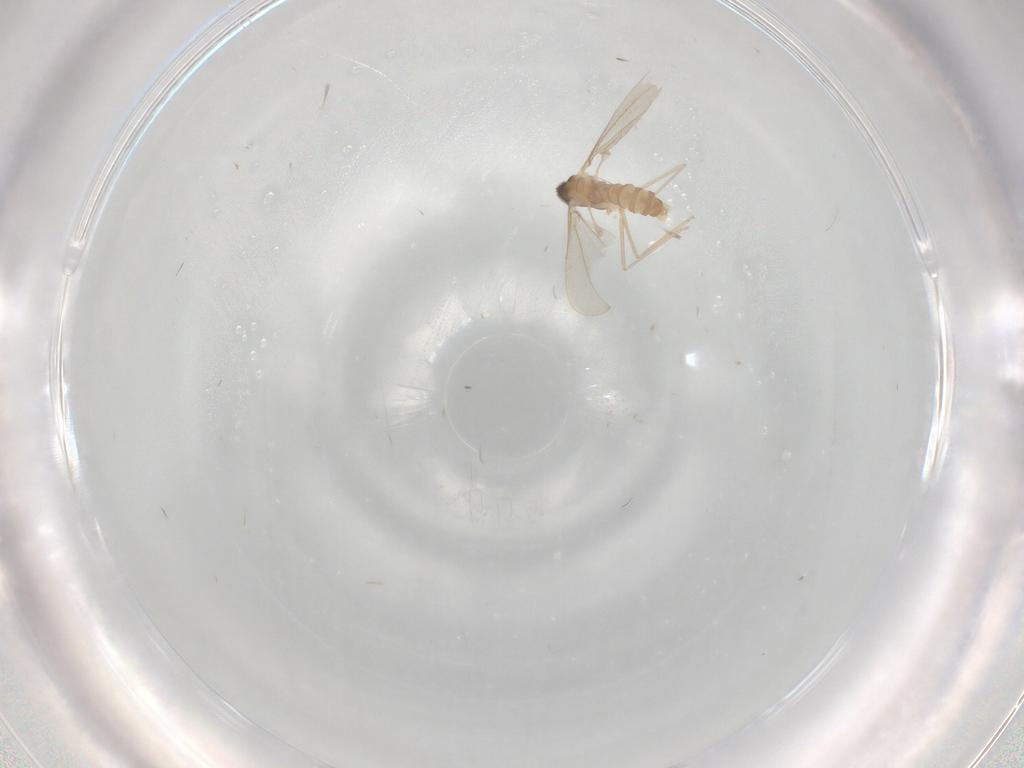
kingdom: Animalia
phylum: Arthropoda
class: Insecta
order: Diptera
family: Cecidomyiidae
